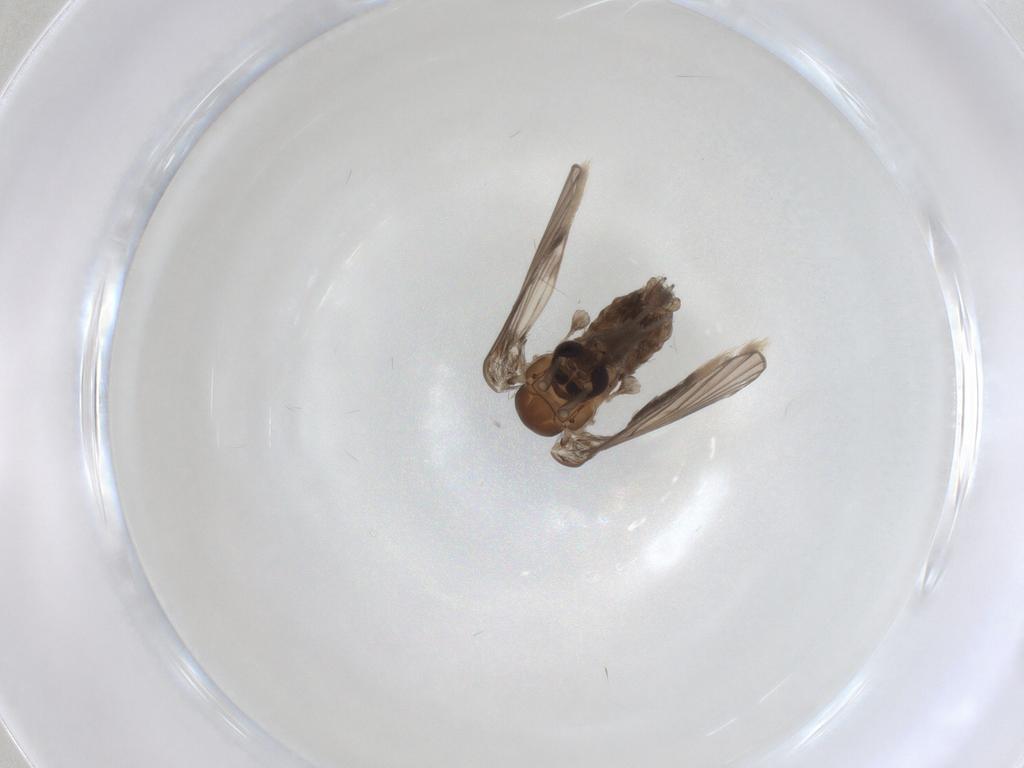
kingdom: Animalia
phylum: Arthropoda
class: Insecta
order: Diptera
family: Psychodidae
